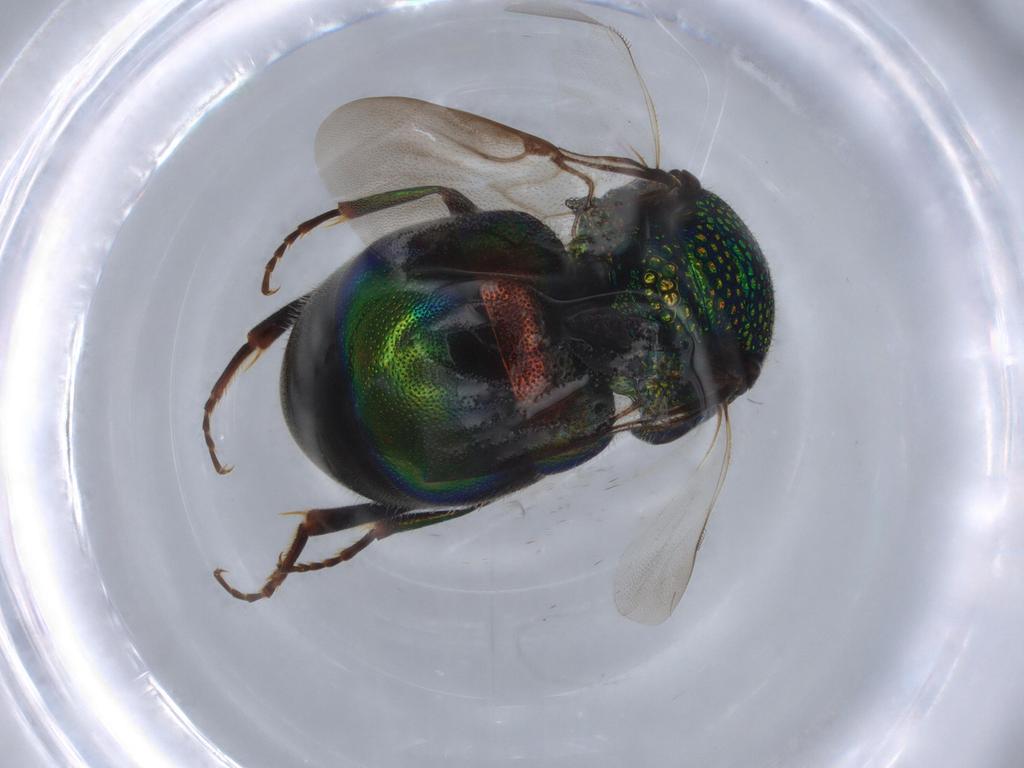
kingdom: Animalia
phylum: Arthropoda
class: Insecta
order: Hymenoptera
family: Chrysididae
